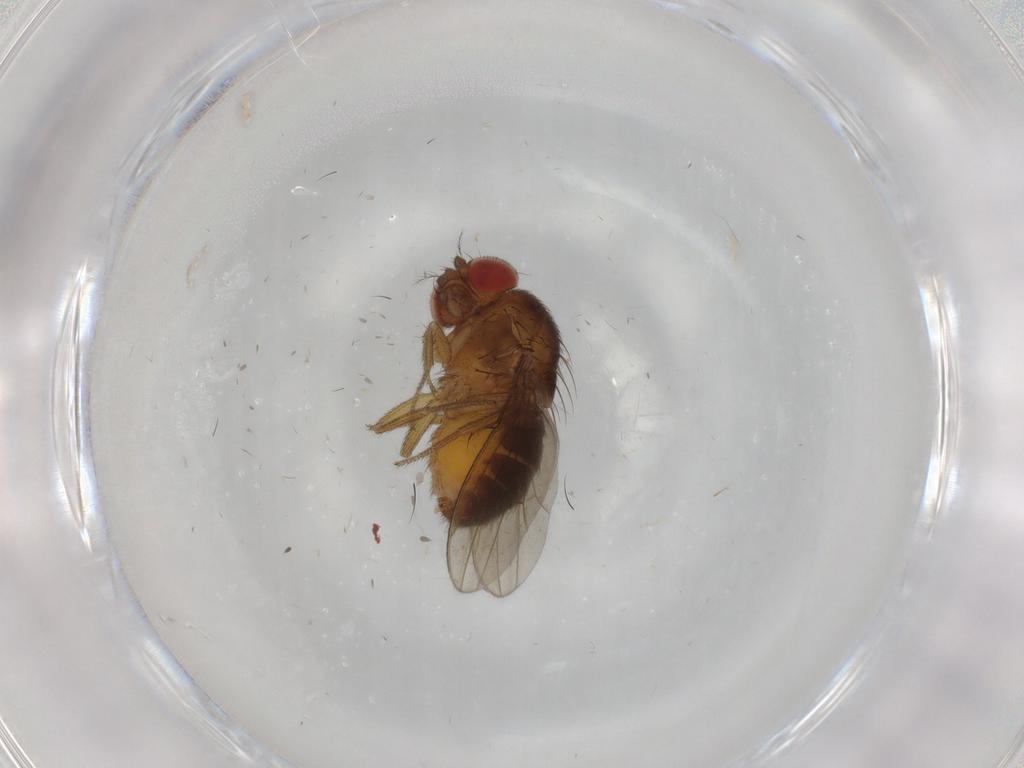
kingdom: Animalia
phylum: Arthropoda
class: Insecta
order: Diptera
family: Drosophilidae
